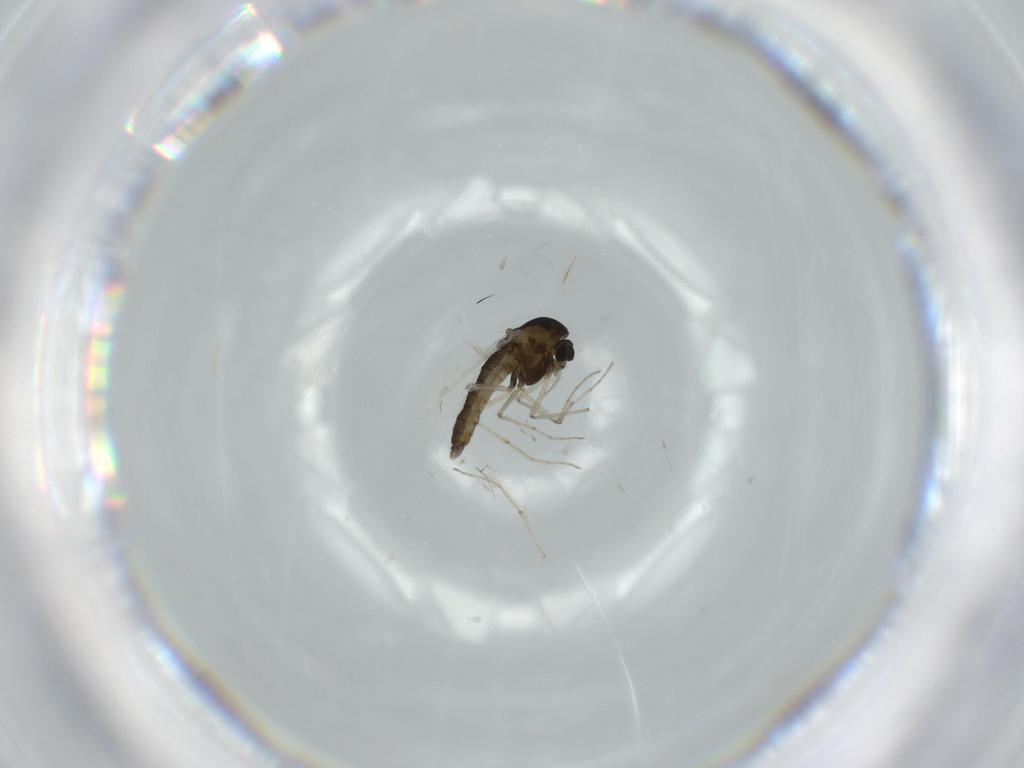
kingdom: Animalia
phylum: Arthropoda
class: Insecta
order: Diptera
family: Chironomidae
